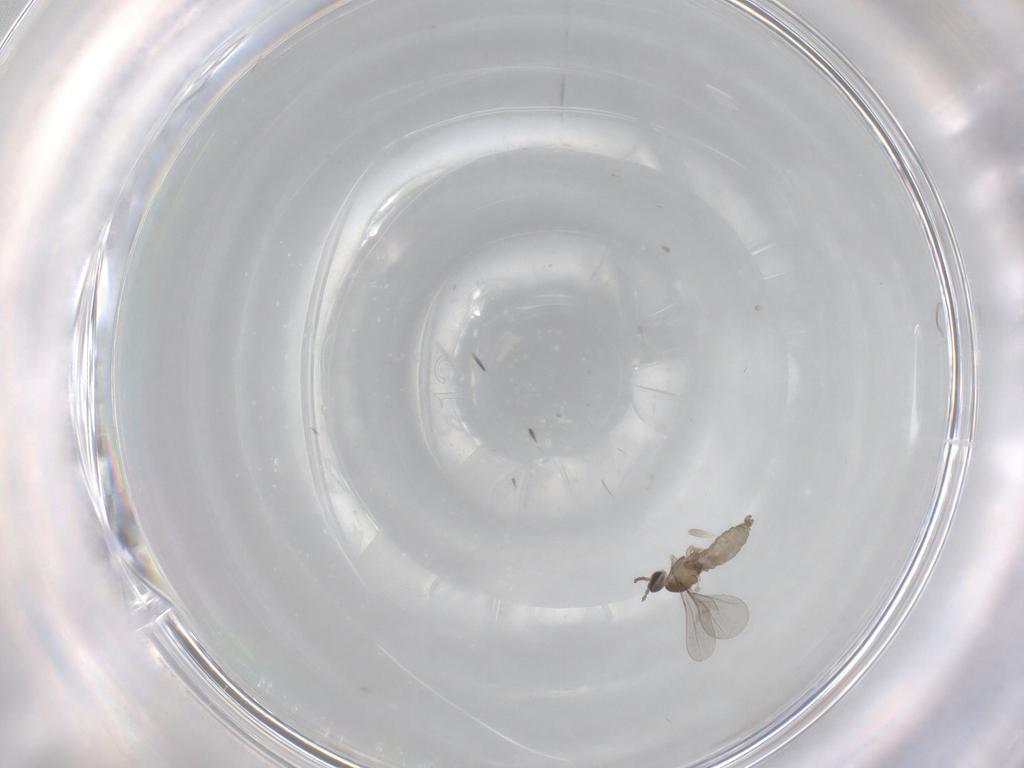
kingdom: Animalia
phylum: Arthropoda
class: Insecta
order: Diptera
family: Cecidomyiidae
